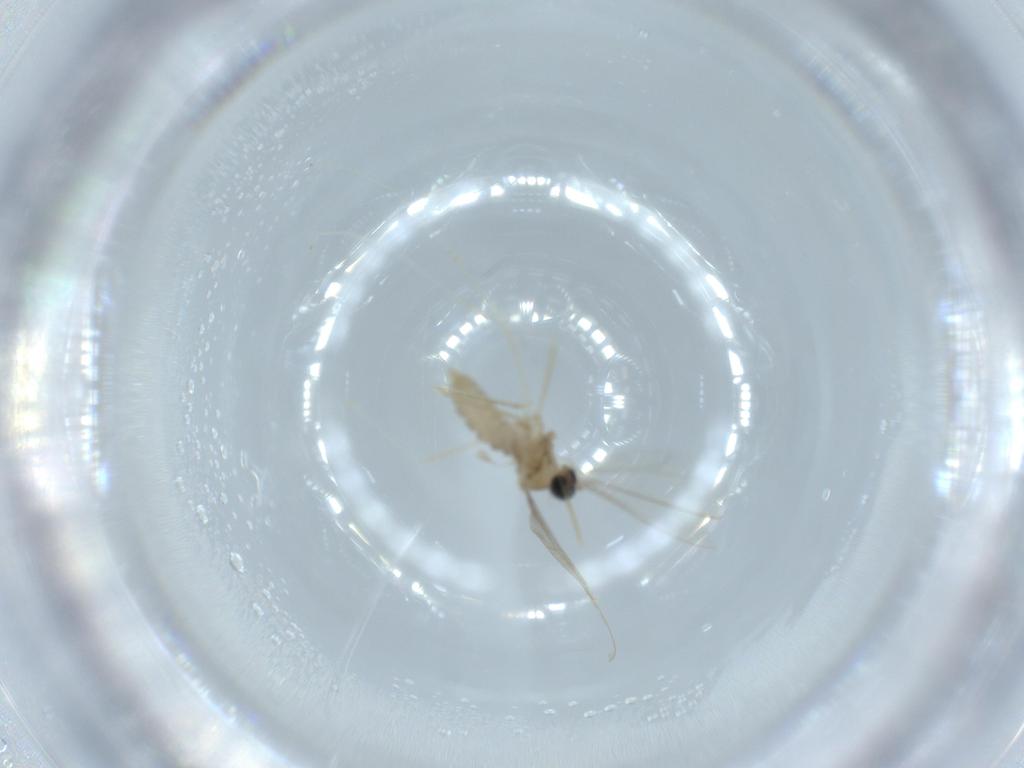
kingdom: Animalia
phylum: Arthropoda
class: Insecta
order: Diptera
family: Cecidomyiidae
